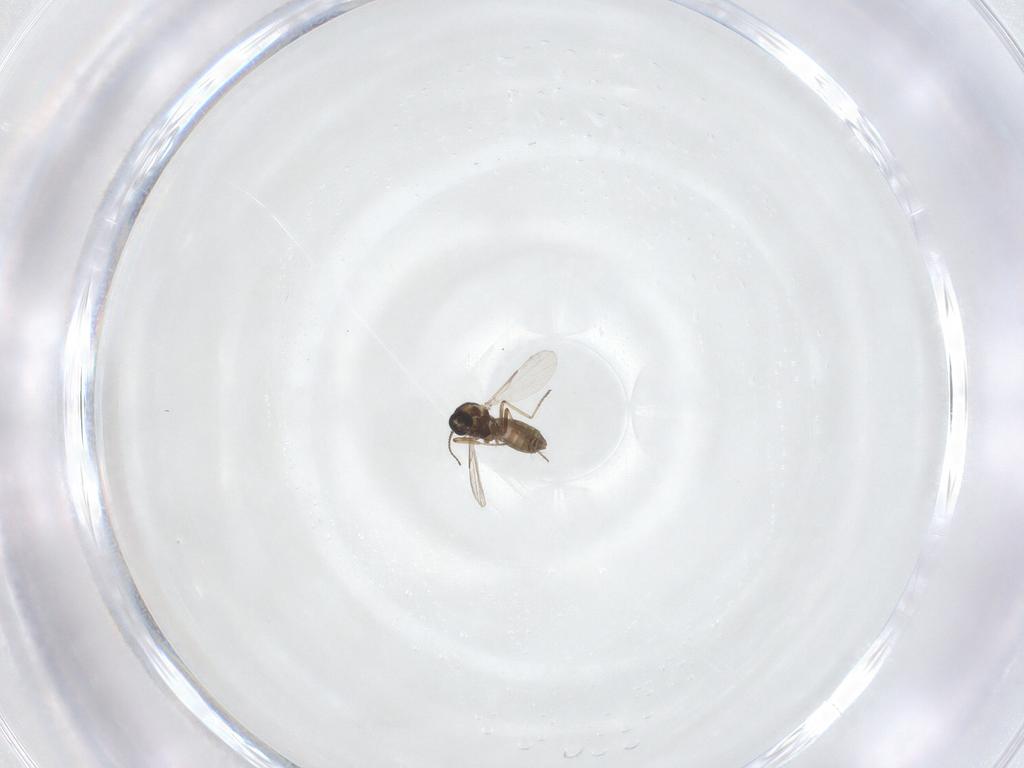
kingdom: Animalia
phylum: Arthropoda
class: Insecta
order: Diptera
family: Ceratopogonidae
